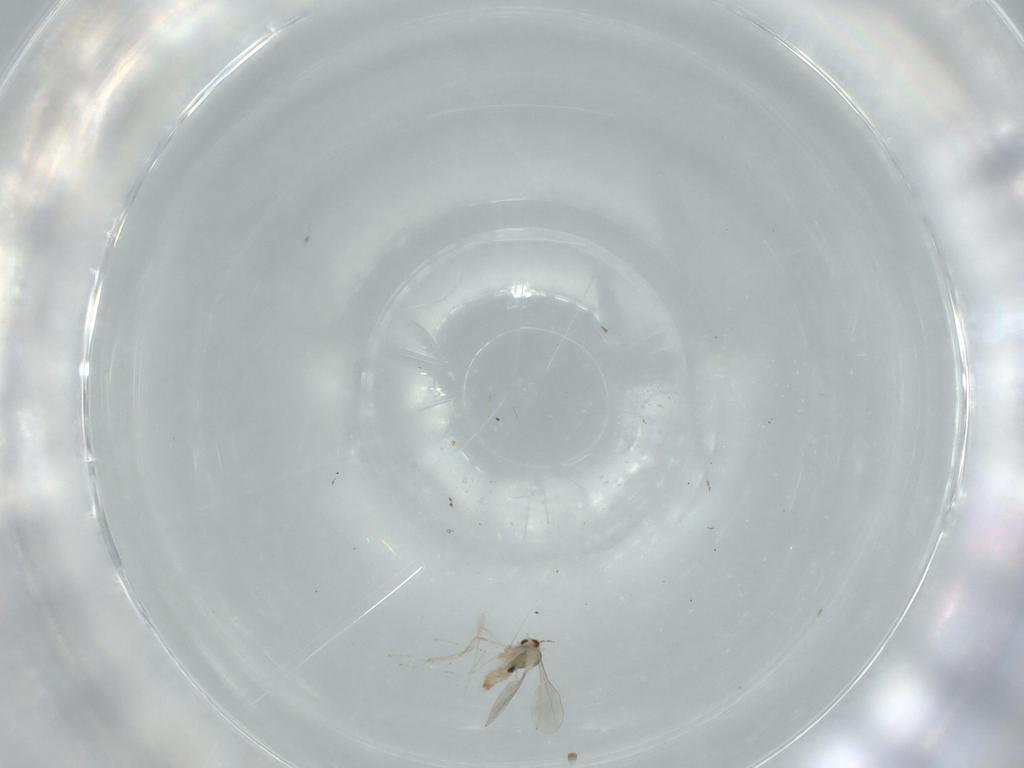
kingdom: Animalia
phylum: Arthropoda
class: Insecta
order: Diptera
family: Cecidomyiidae
